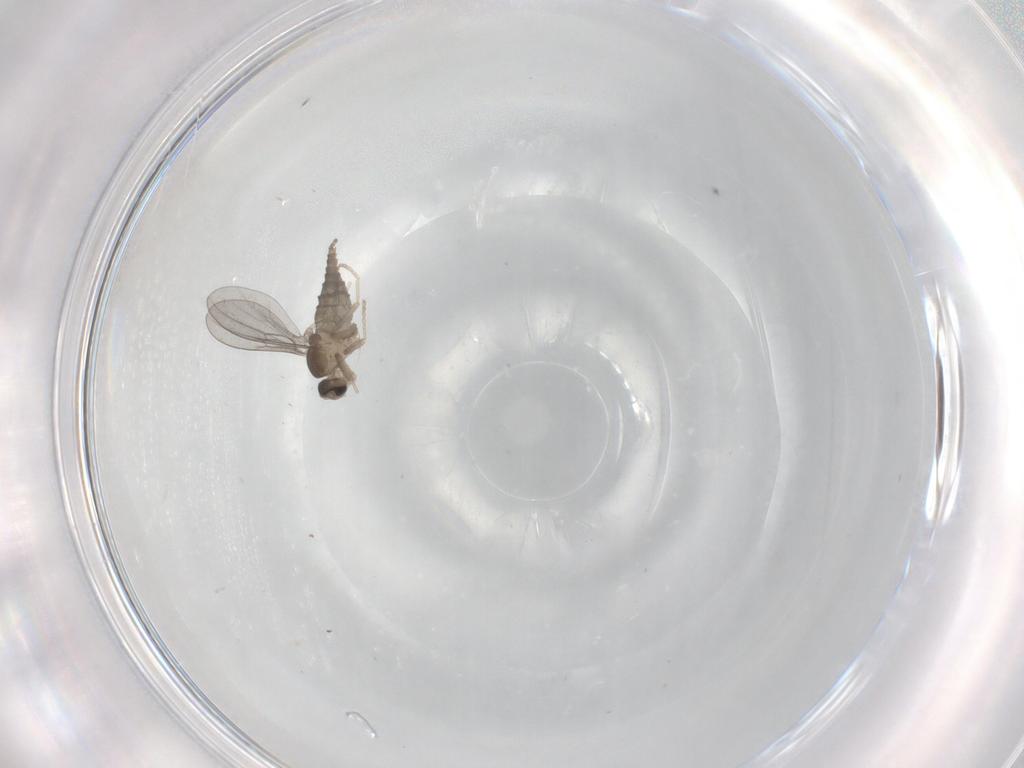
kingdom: Animalia
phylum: Arthropoda
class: Insecta
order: Diptera
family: Cecidomyiidae
